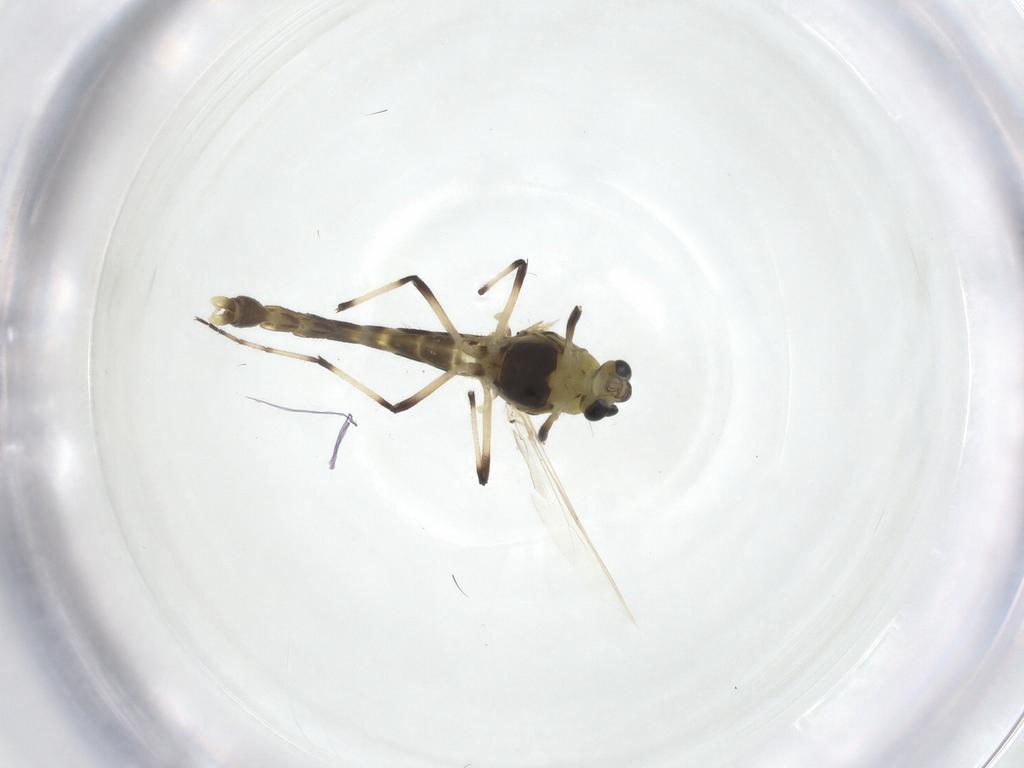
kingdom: Animalia
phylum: Arthropoda
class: Insecta
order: Diptera
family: Chironomidae
